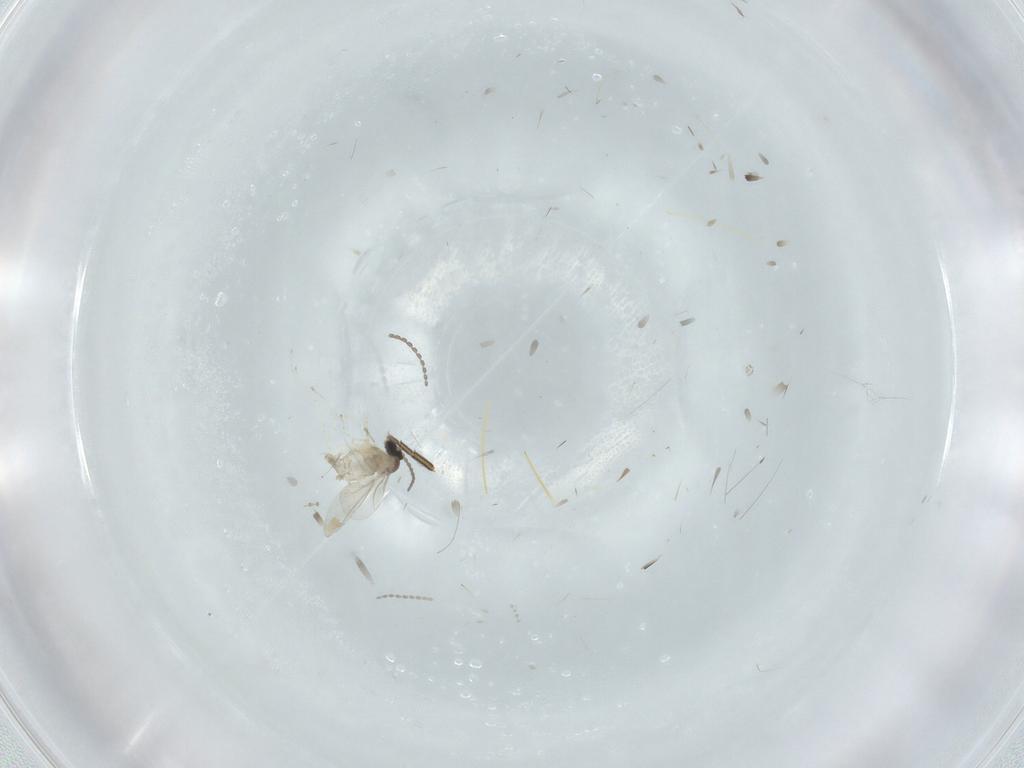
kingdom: Animalia
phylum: Arthropoda
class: Insecta
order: Diptera
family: Cecidomyiidae
